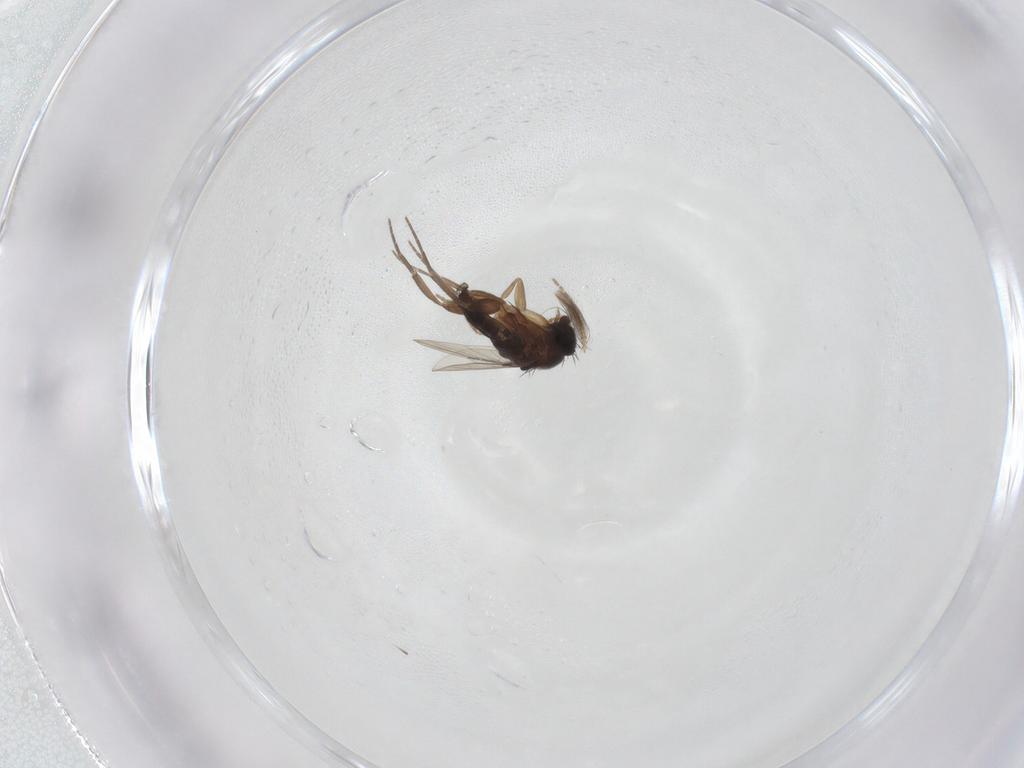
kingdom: Animalia
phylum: Arthropoda
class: Insecta
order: Diptera
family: Phoridae
